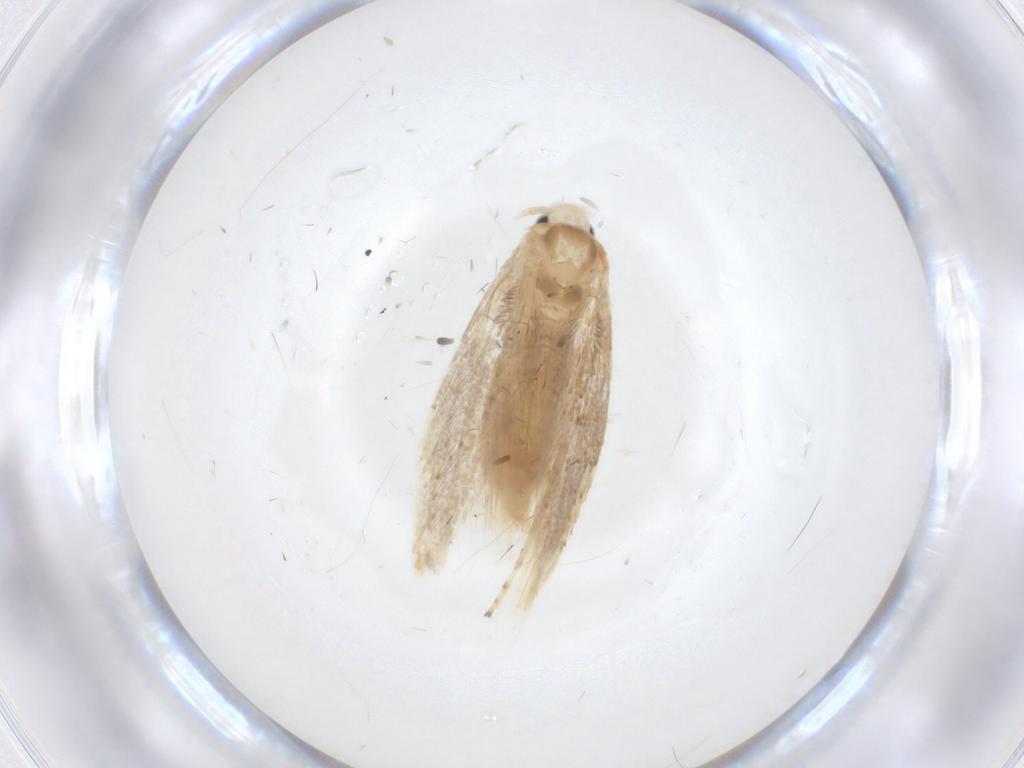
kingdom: Animalia
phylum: Arthropoda
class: Insecta
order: Lepidoptera
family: Gracillariidae
